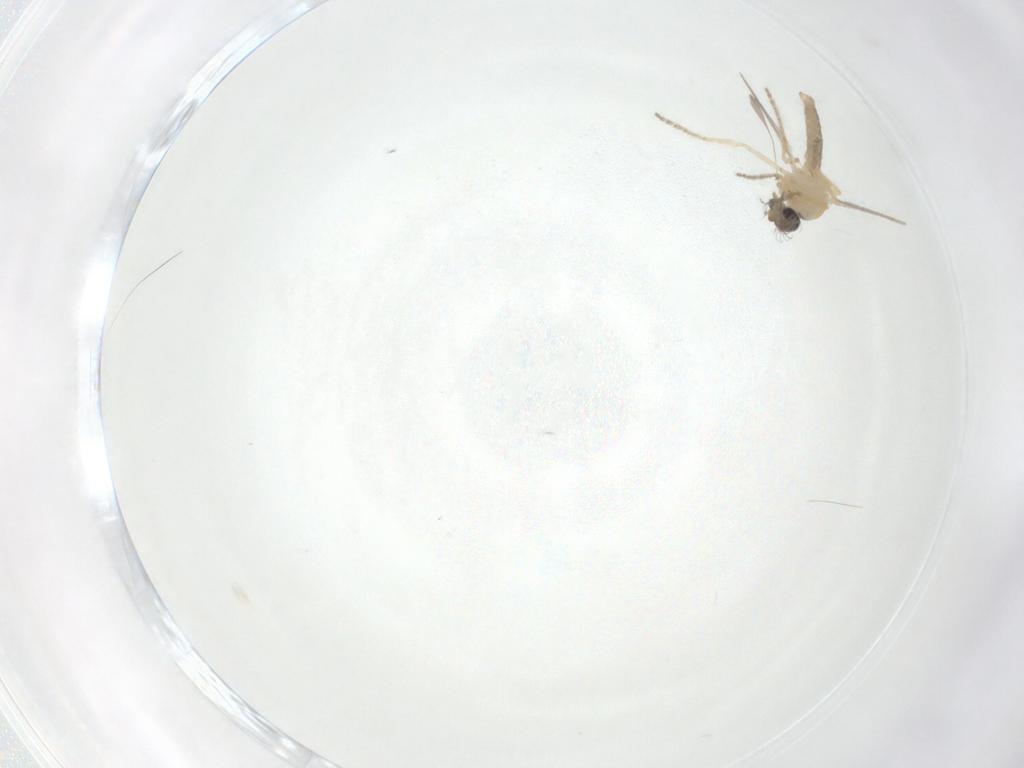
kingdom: Animalia
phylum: Arthropoda
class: Insecta
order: Diptera
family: Ceratopogonidae
